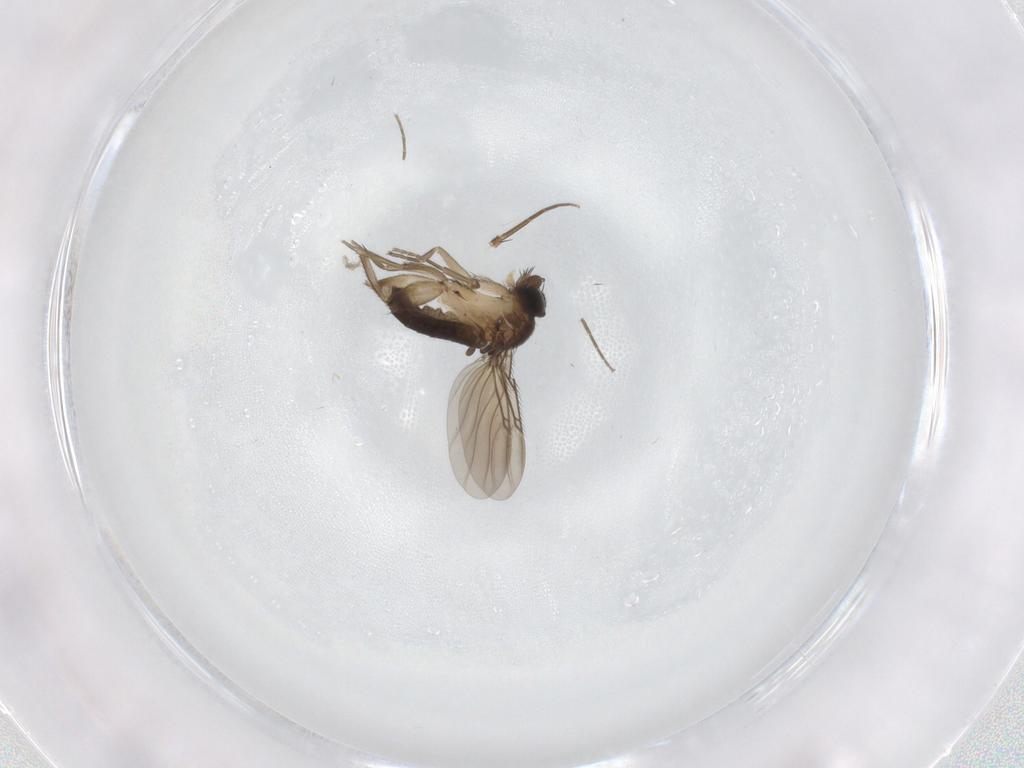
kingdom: Animalia
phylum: Arthropoda
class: Insecta
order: Diptera
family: Phoridae
